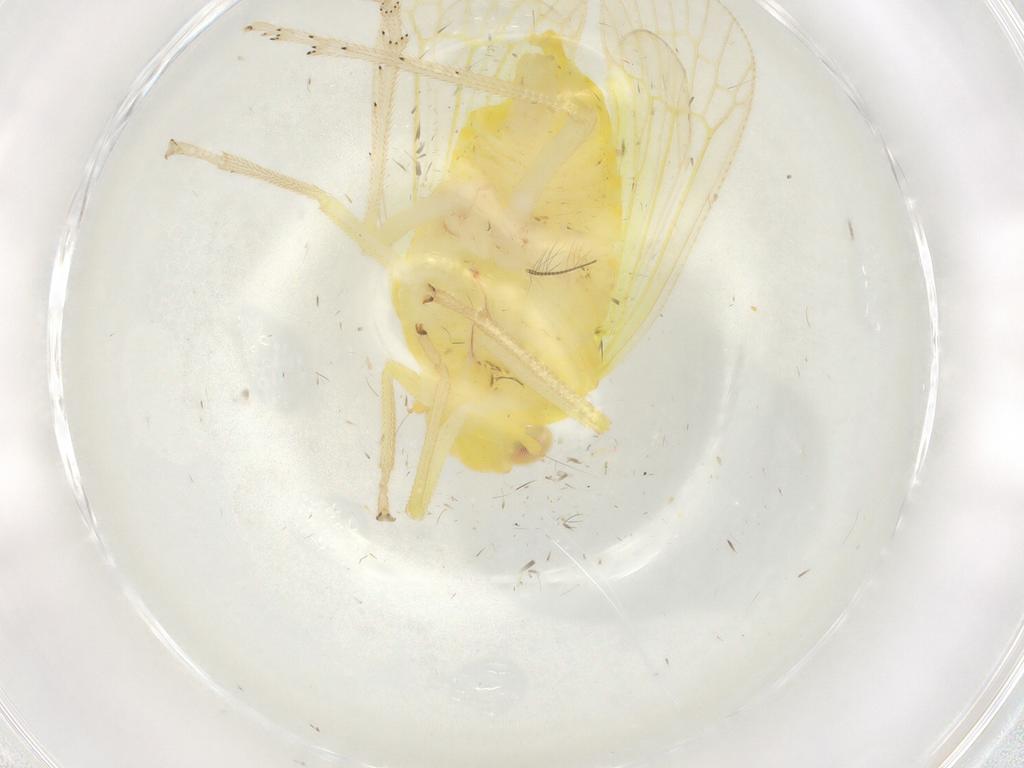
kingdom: Animalia
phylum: Arthropoda
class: Insecta
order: Hemiptera
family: Tropiduchidae
